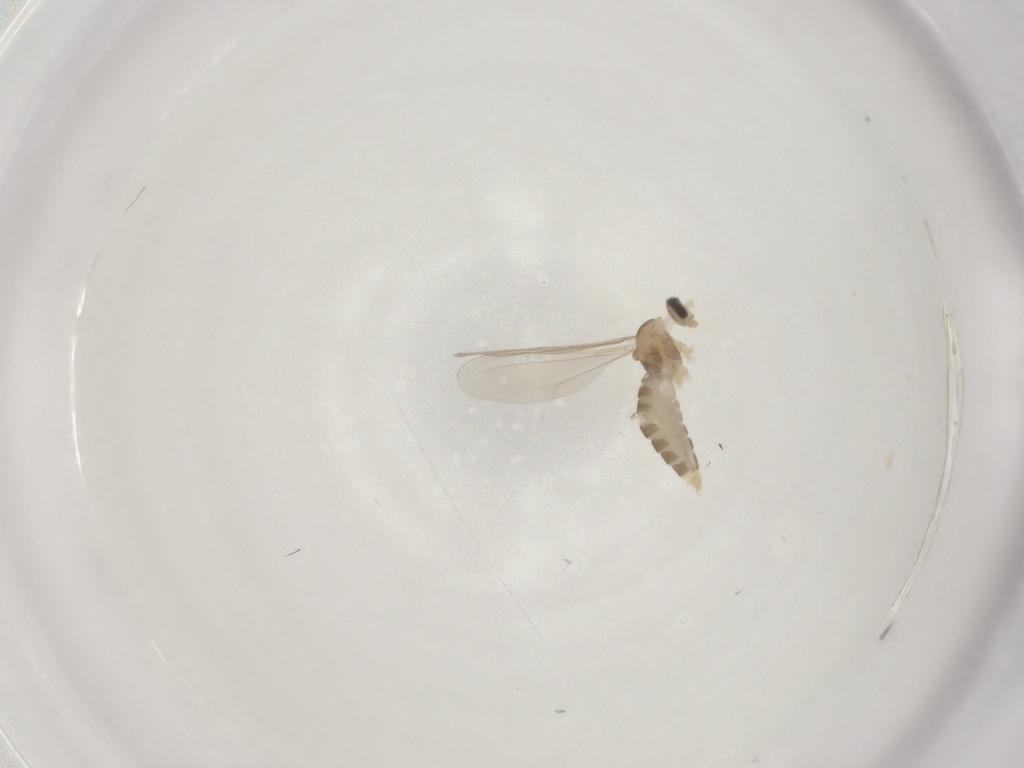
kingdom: Animalia
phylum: Arthropoda
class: Insecta
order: Diptera
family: Cecidomyiidae
